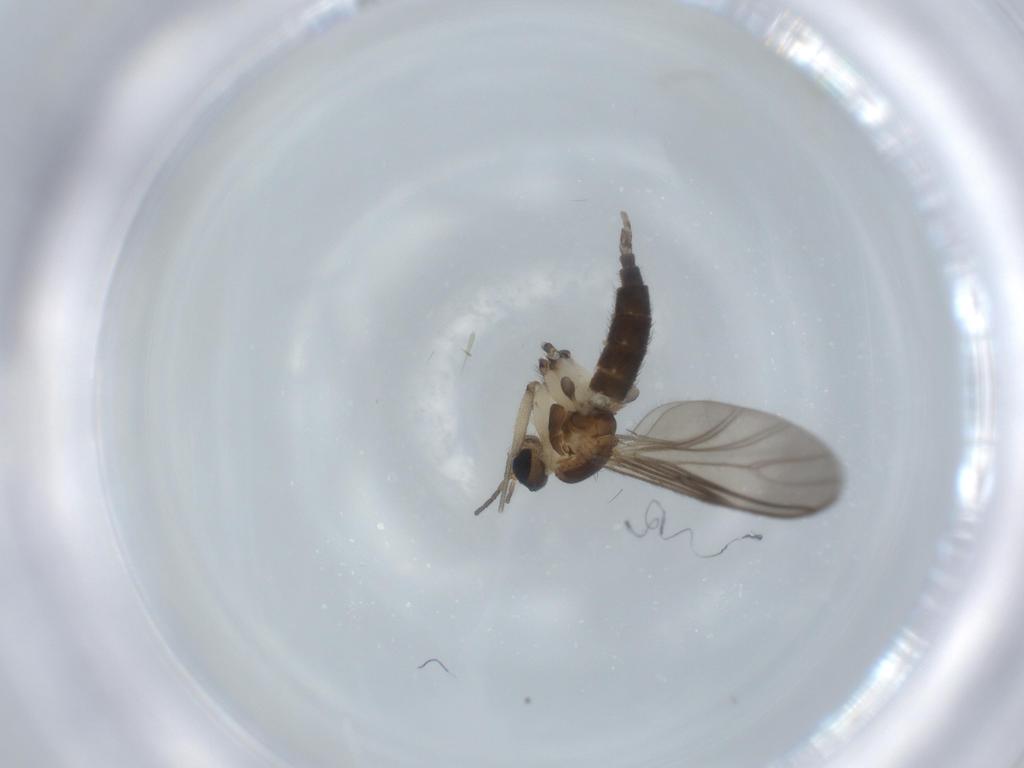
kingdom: Animalia
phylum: Arthropoda
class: Insecta
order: Diptera
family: Sciaridae
